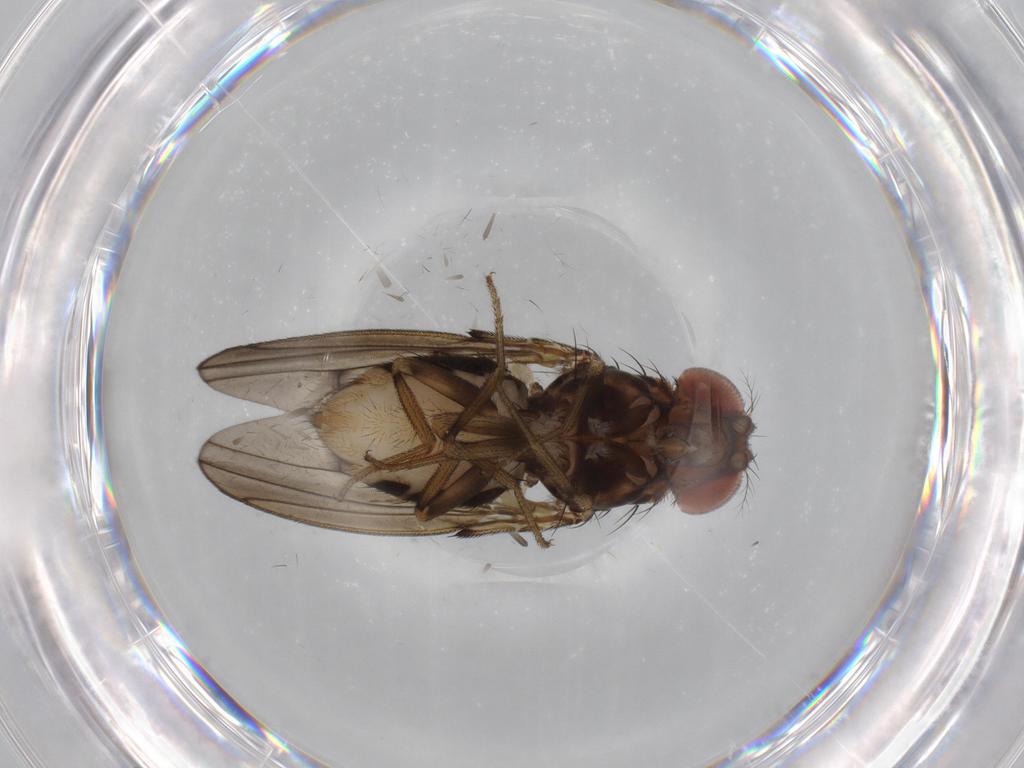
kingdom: Animalia
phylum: Arthropoda
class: Insecta
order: Diptera
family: Drosophilidae
